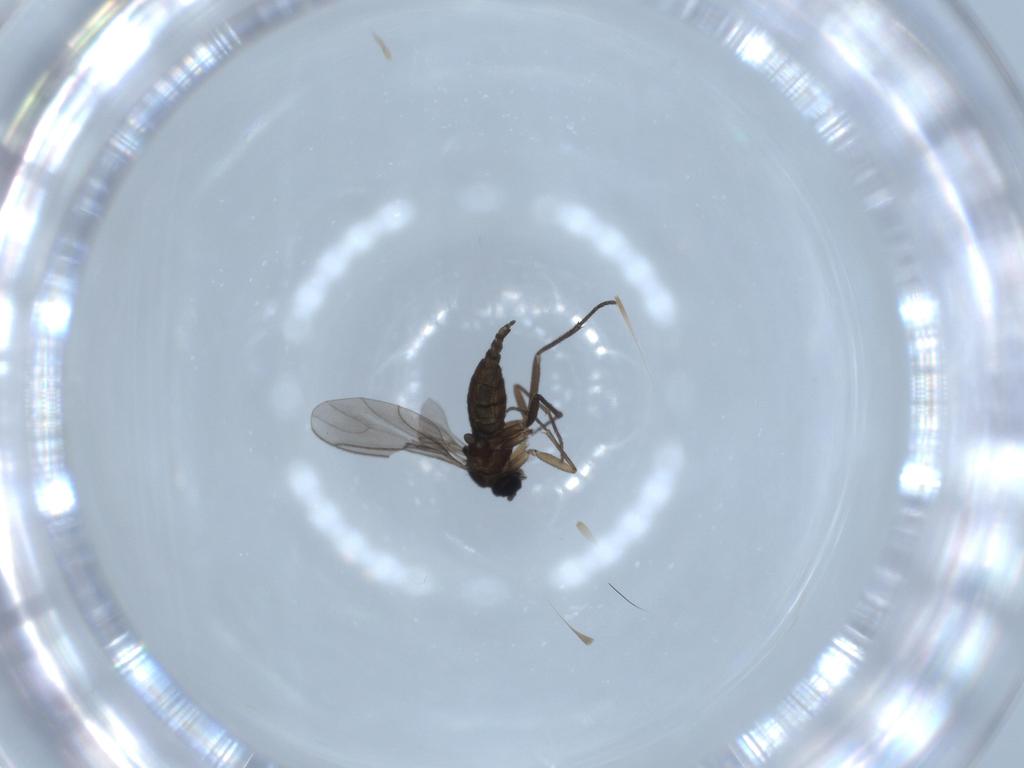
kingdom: Animalia
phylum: Arthropoda
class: Insecta
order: Diptera
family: Sciaridae
